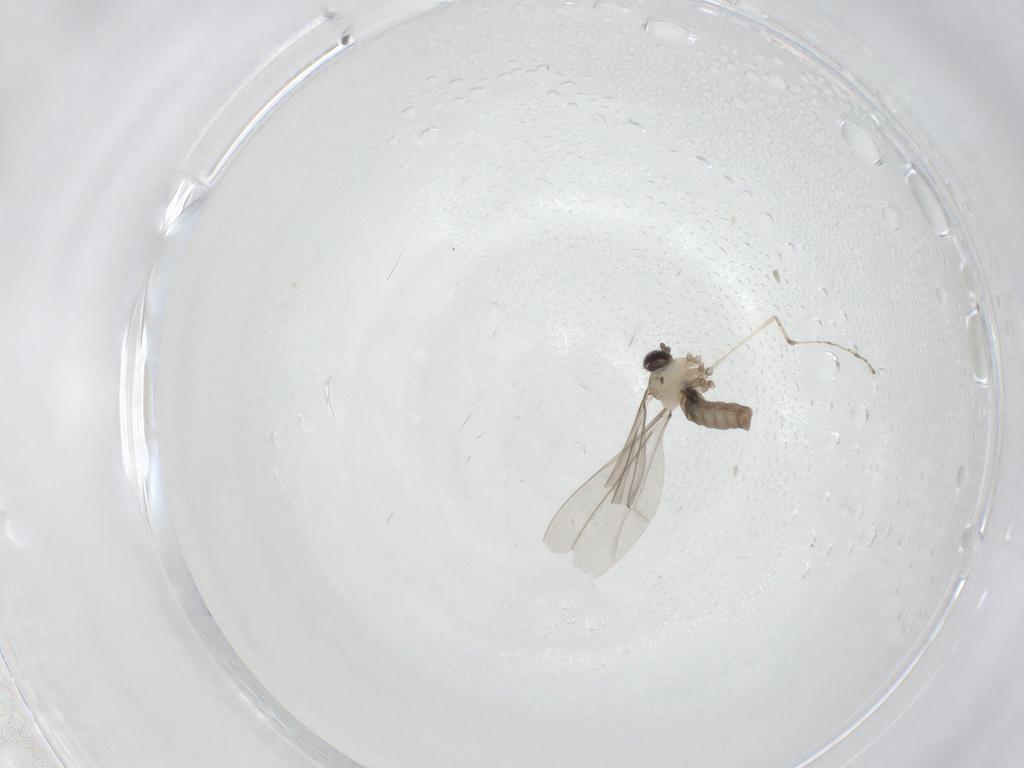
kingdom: Animalia
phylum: Arthropoda
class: Insecta
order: Diptera
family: Cecidomyiidae
